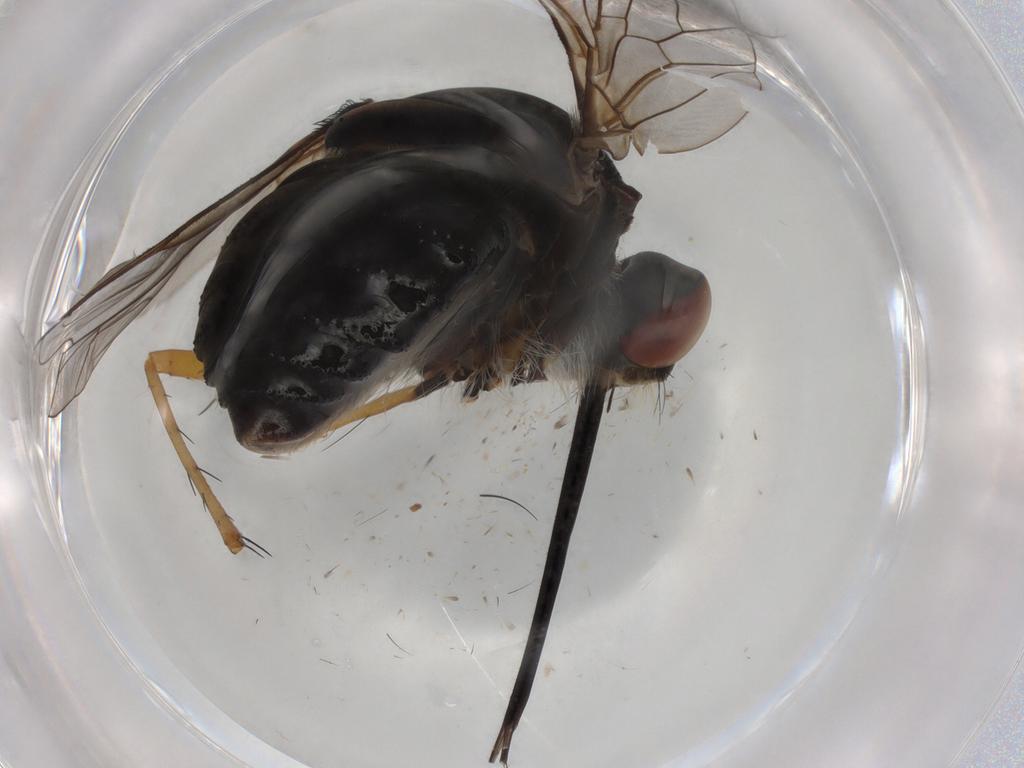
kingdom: Animalia
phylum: Arthropoda
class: Insecta
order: Diptera
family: Bombyliidae
